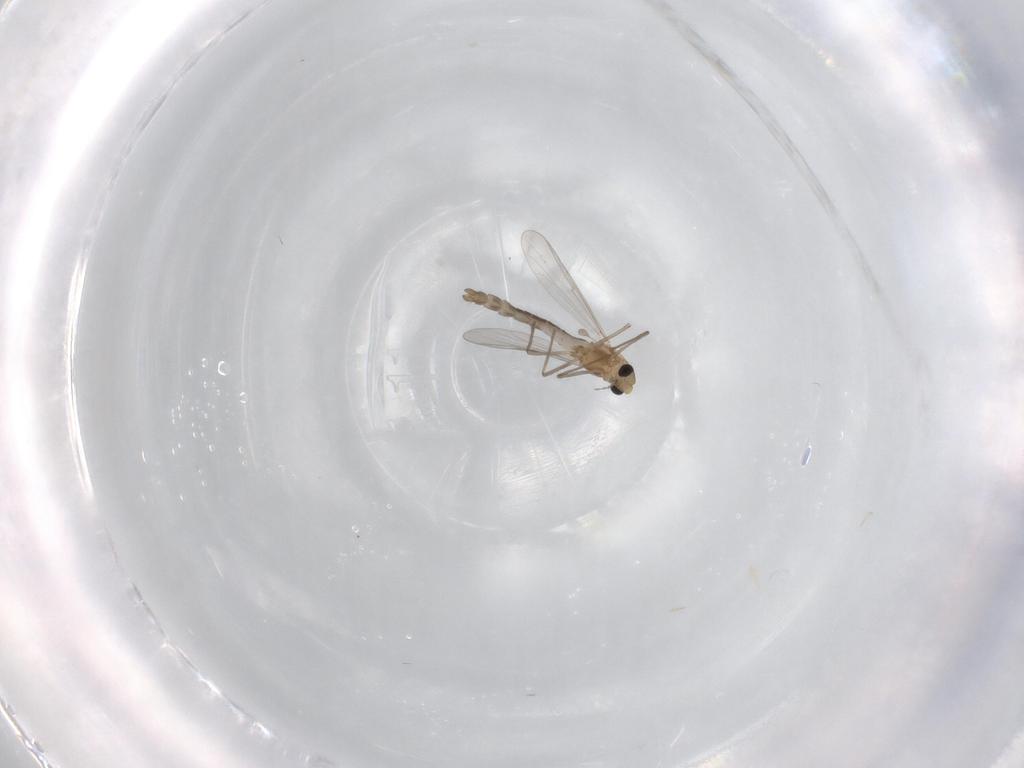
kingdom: Animalia
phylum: Arthropoda
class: Insecta
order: Diptera
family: Chironomidae
